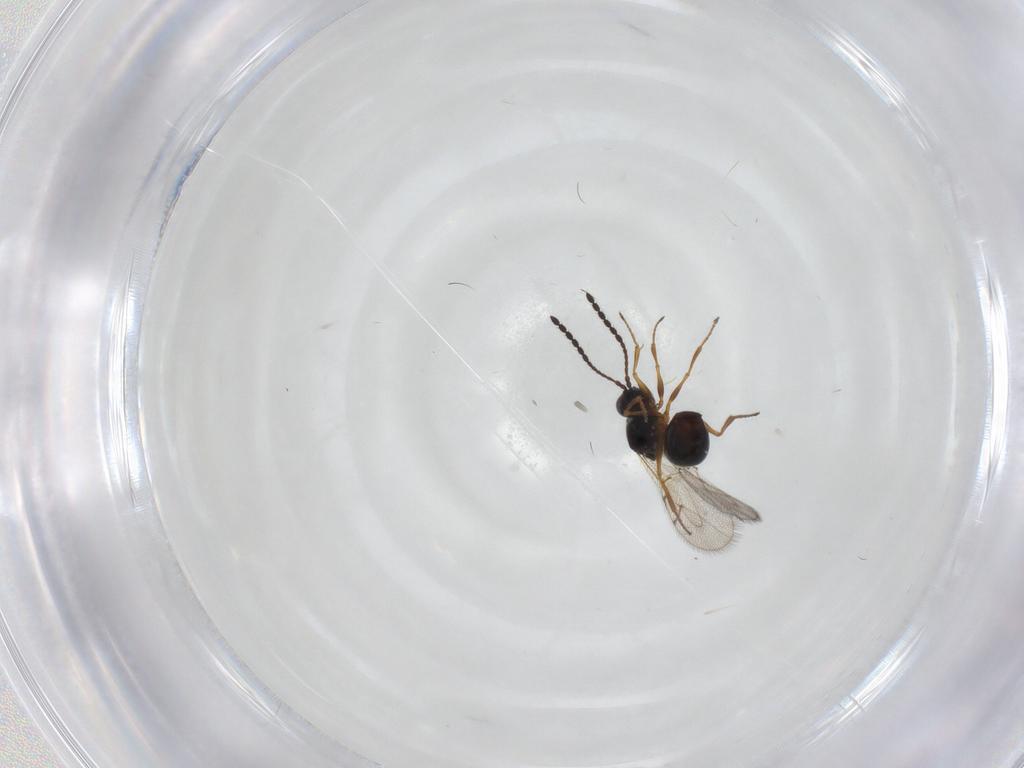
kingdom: Animalia
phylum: Arthropoda
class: Insecta
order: Hymenoptera
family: Figitidae
